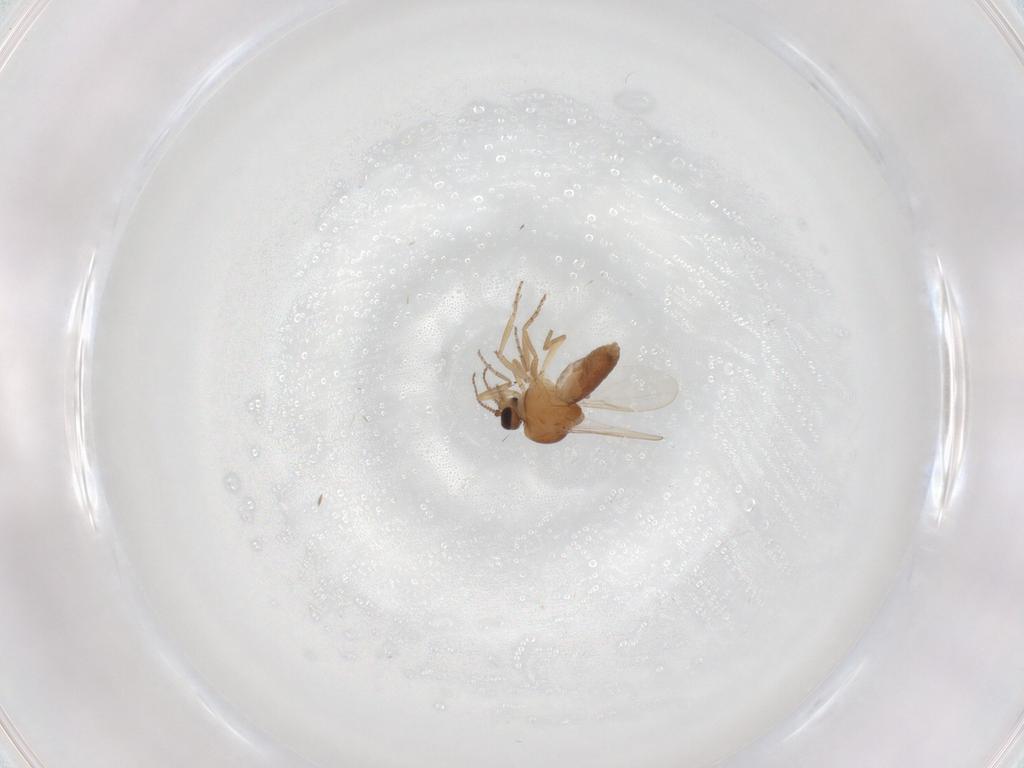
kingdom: Animalia
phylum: Arthropoda
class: Insecta
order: Diptera
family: Ceratopogonidae
